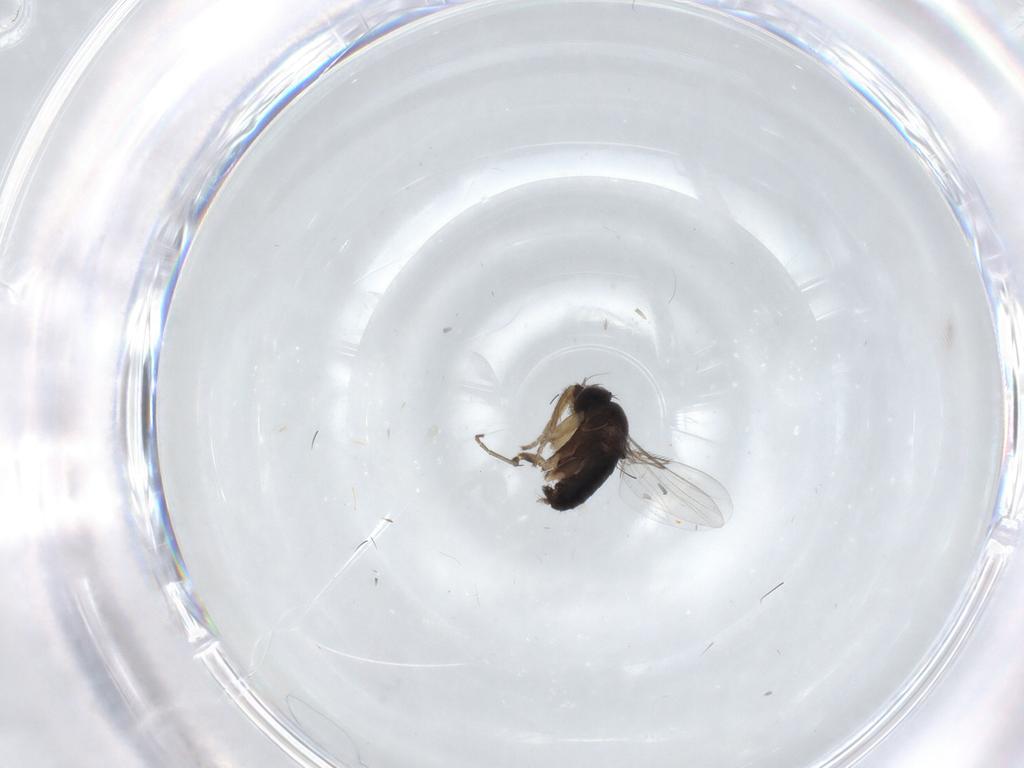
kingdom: Animalia
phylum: Arthropoda
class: Insecta
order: Diptera
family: Phoridae
